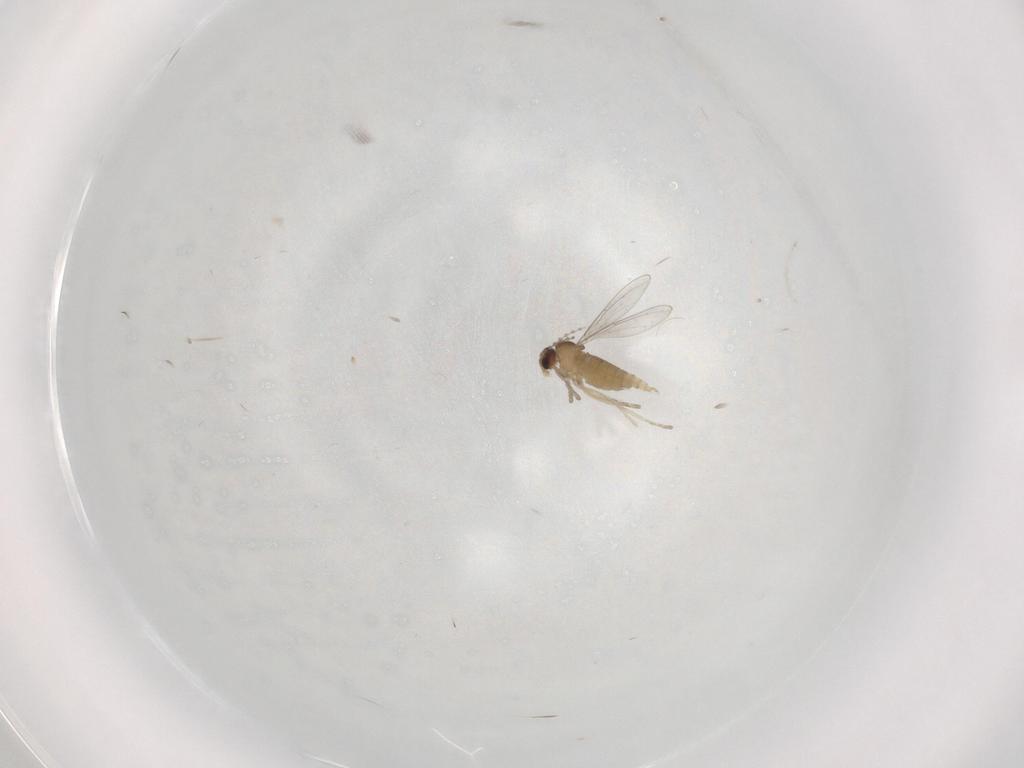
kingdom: Animalia
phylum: Arthropoda
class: Insecta
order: Diptera
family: Cecidomyiidae
